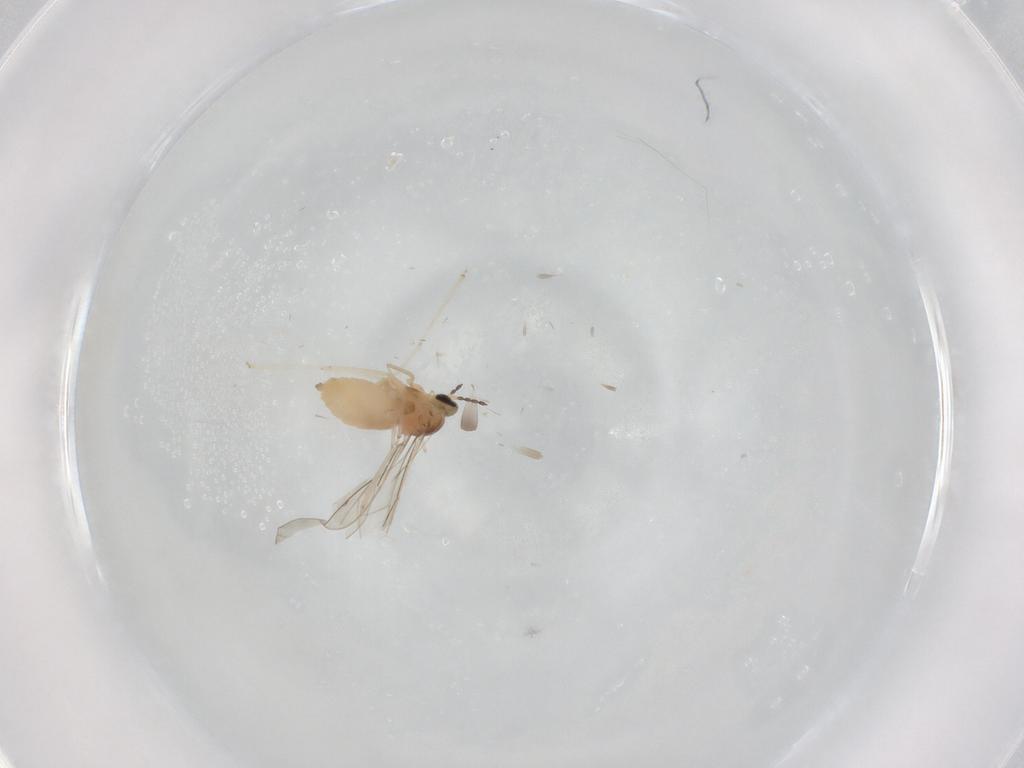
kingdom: Animalia
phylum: Arthropoda
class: Insecta
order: Diptera
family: Cecidomyiidae
